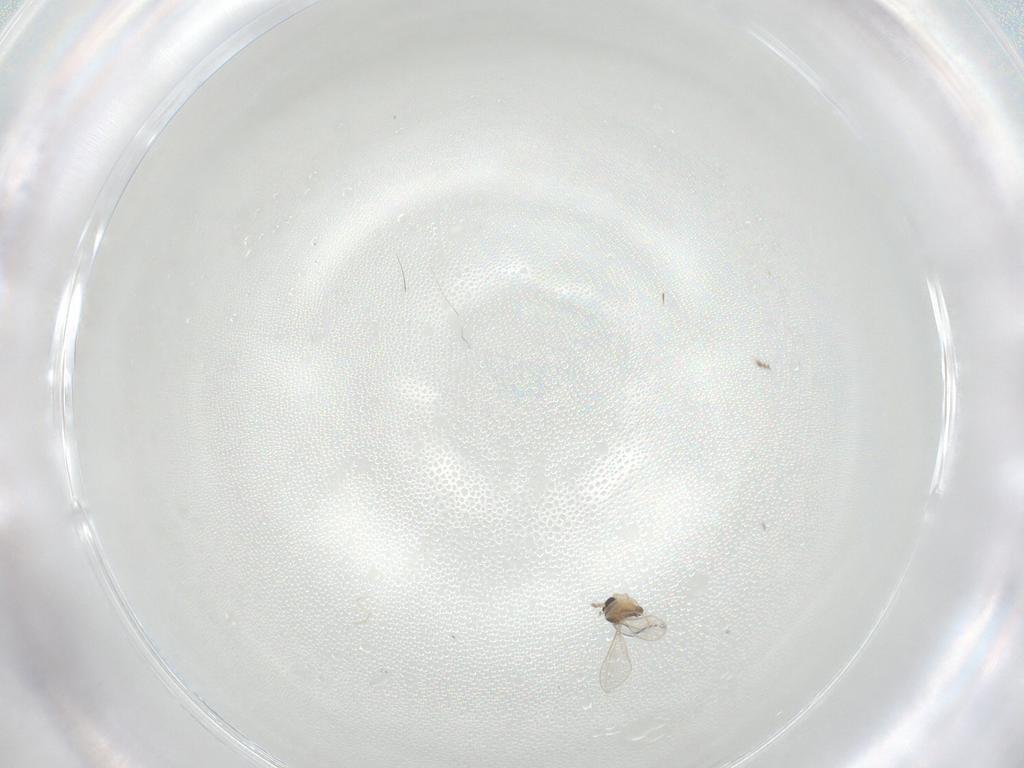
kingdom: Animalia
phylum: Arthropoda
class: Insecta
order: Diptera
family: Cecidomyiidae
